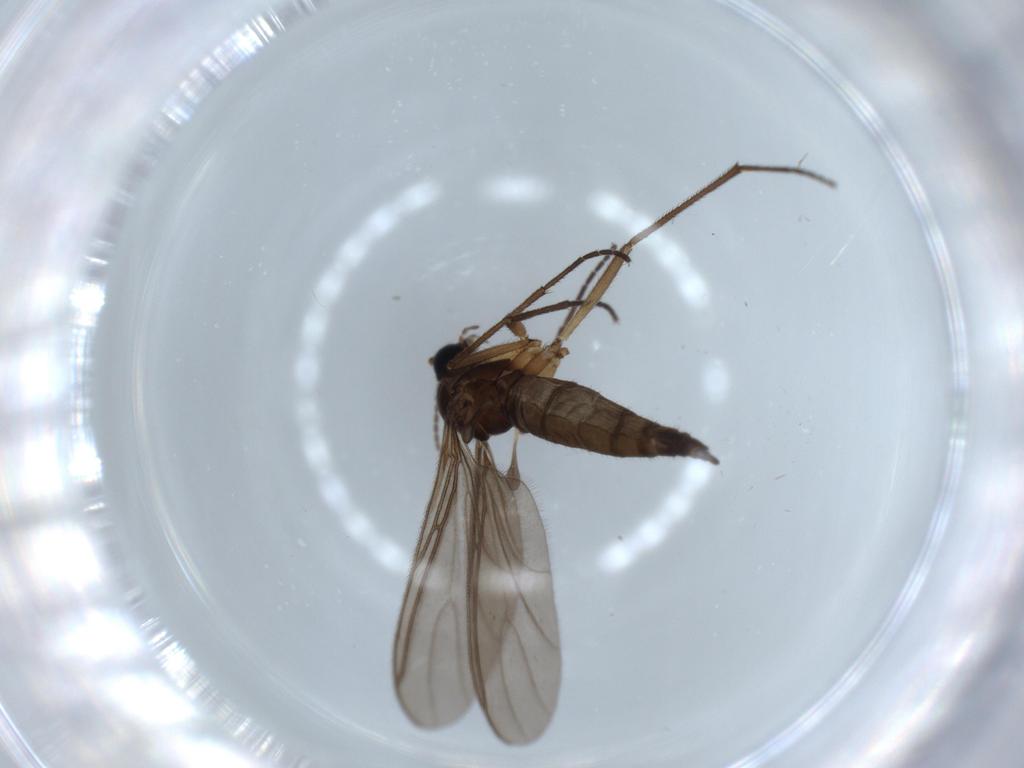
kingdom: Animalia
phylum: Arthropoda
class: Insecta
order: Diptera
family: Sciaridae
